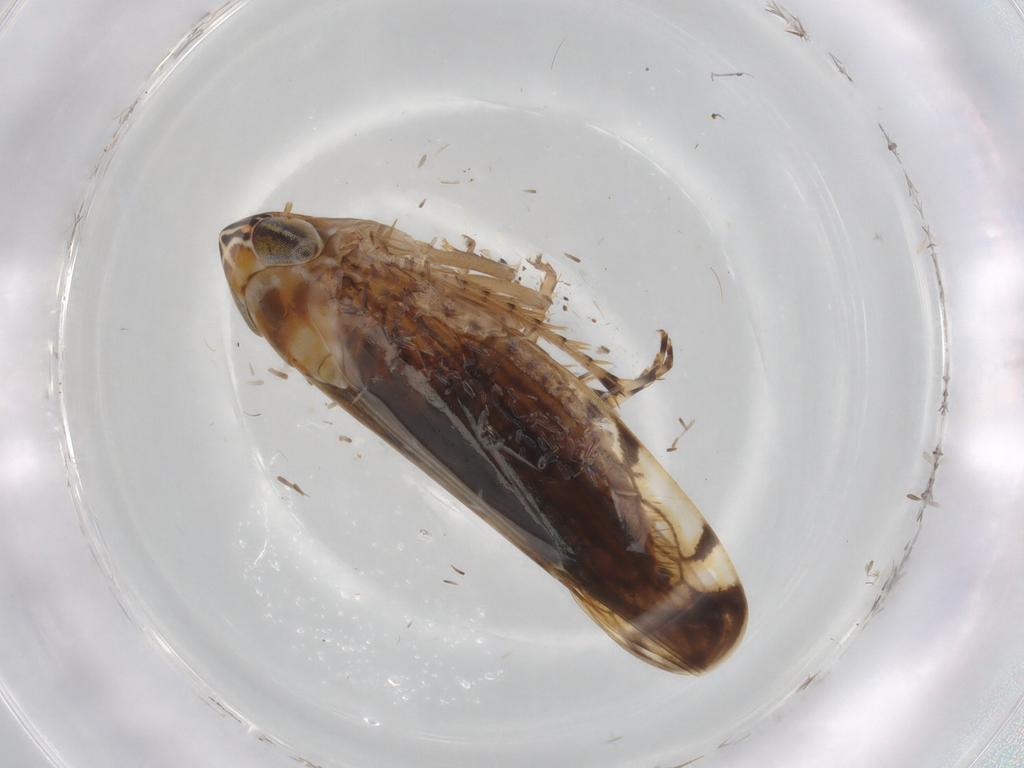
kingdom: Animalia
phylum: Arthropoda
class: Insecta
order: Hemiptera
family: Cicadellidae
